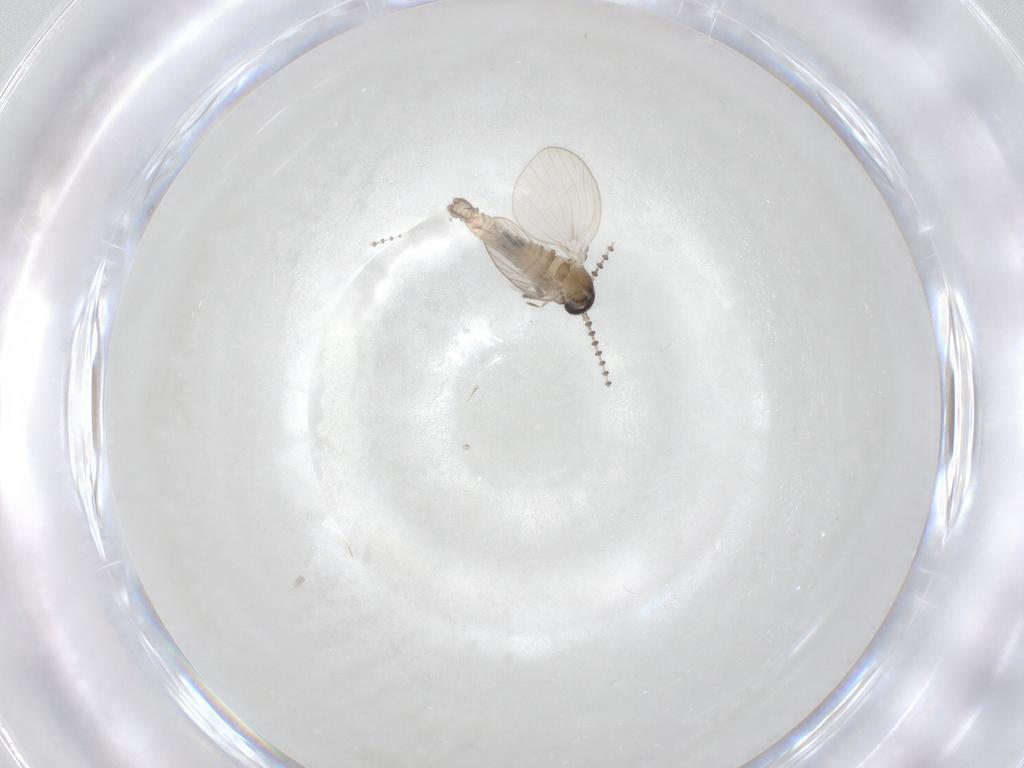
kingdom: Animalia
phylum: Arthropoda
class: Insecta
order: Diptera
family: Psychodidae
